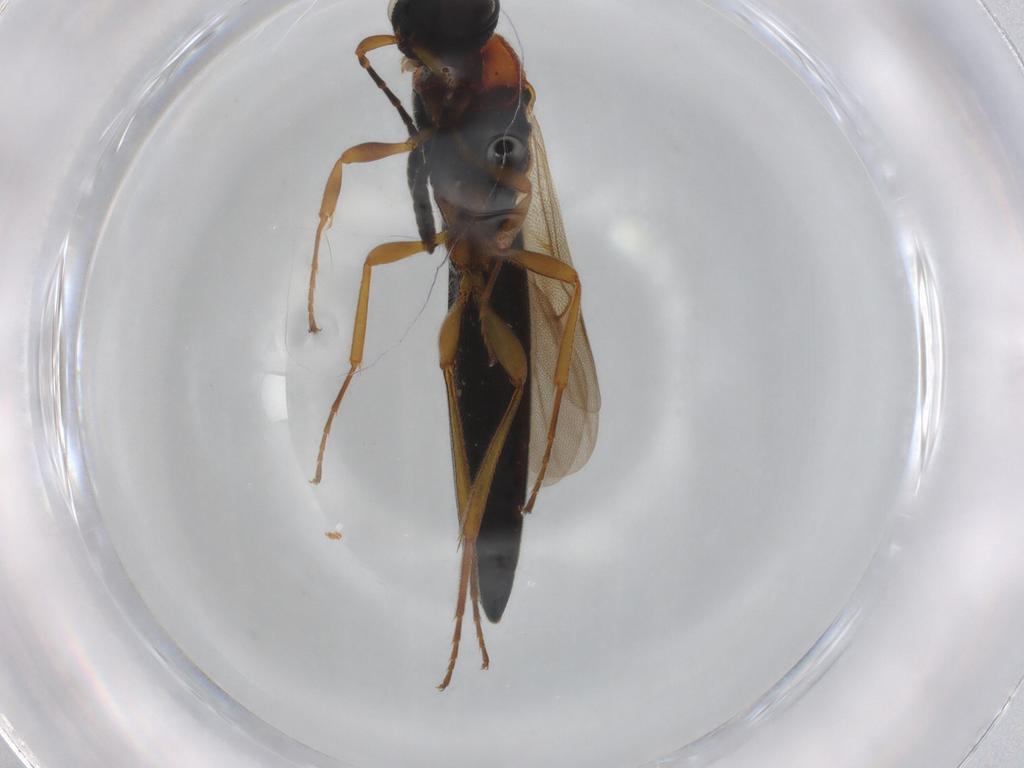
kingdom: Animalia
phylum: Arthropoda
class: Insecta
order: Hymenoptera
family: Formicidae
